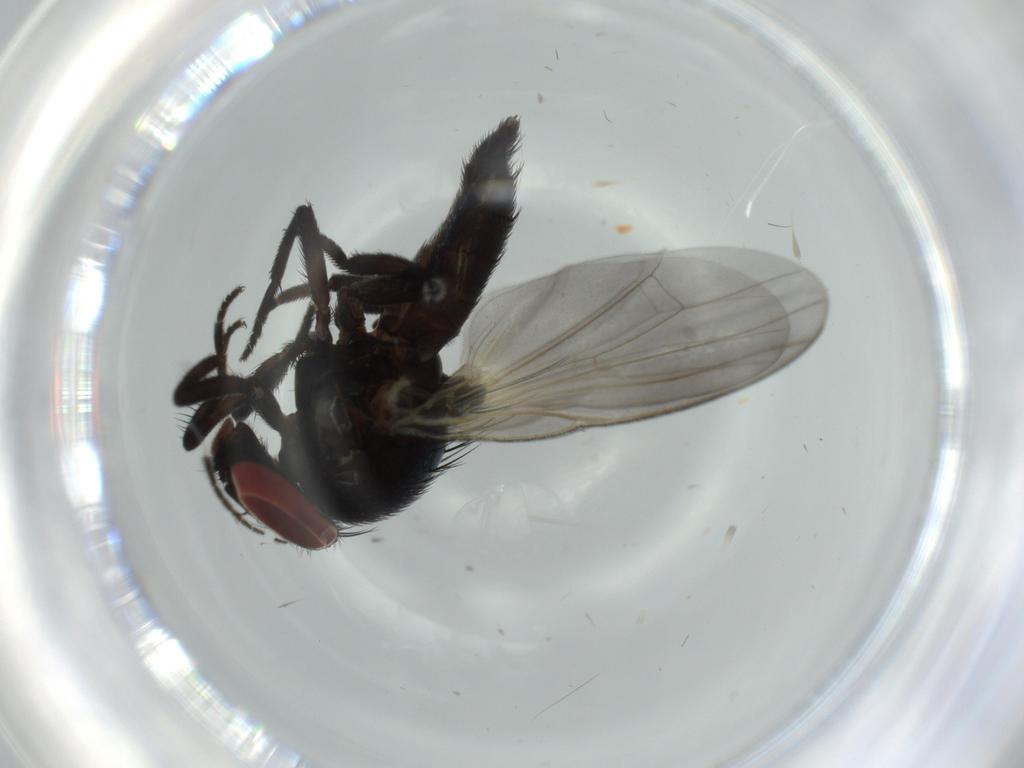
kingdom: Animalia
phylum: Arthropoda
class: Insecta
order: Diptera
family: Lonchaeidae
